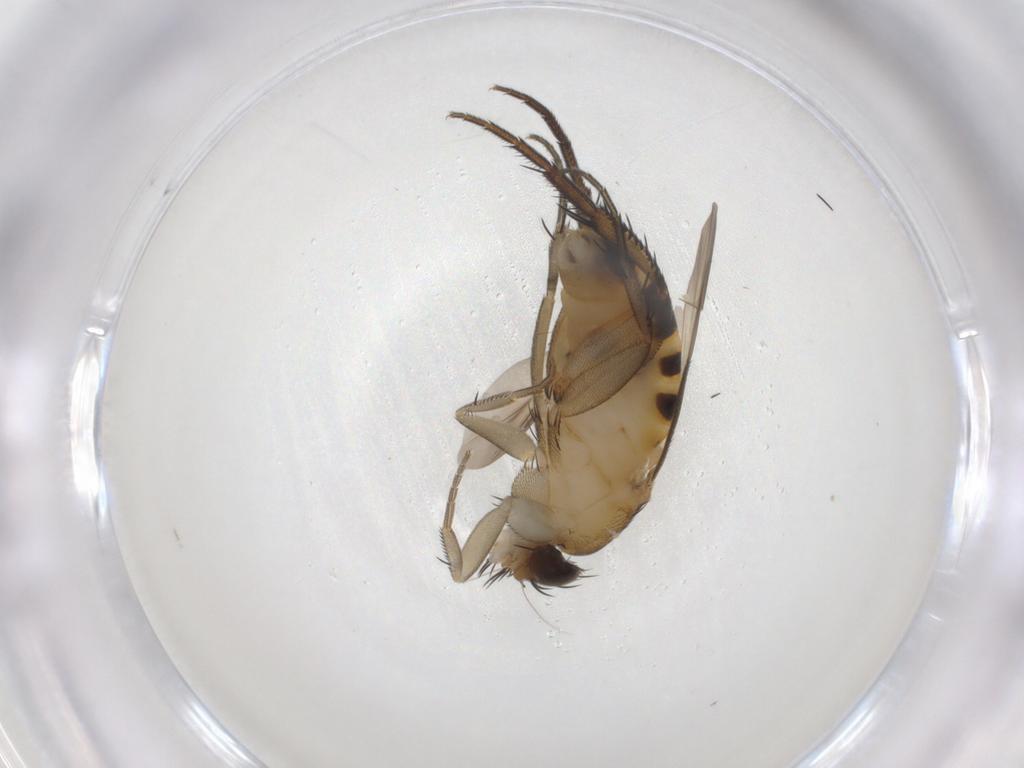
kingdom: Animalia
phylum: Arthropoda
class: Insecta
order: Diptera
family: Phoridae
